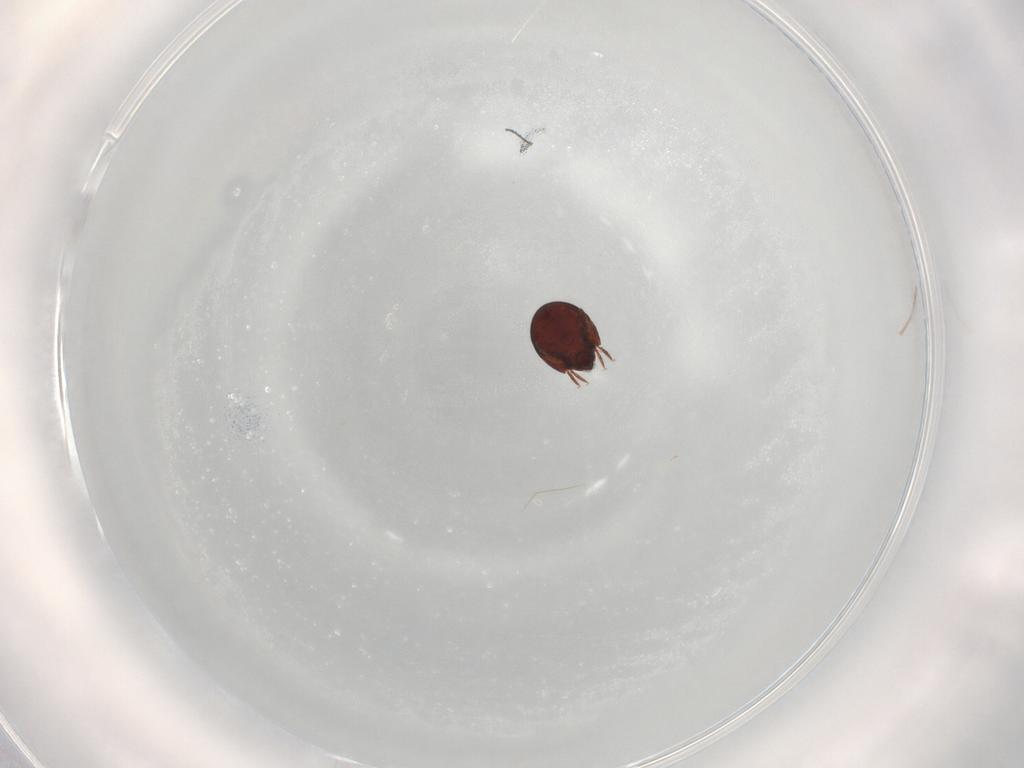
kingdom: Animalia
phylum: Arthropoda
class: Arachnida
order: Sarcoptiformes
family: Galumnidae
